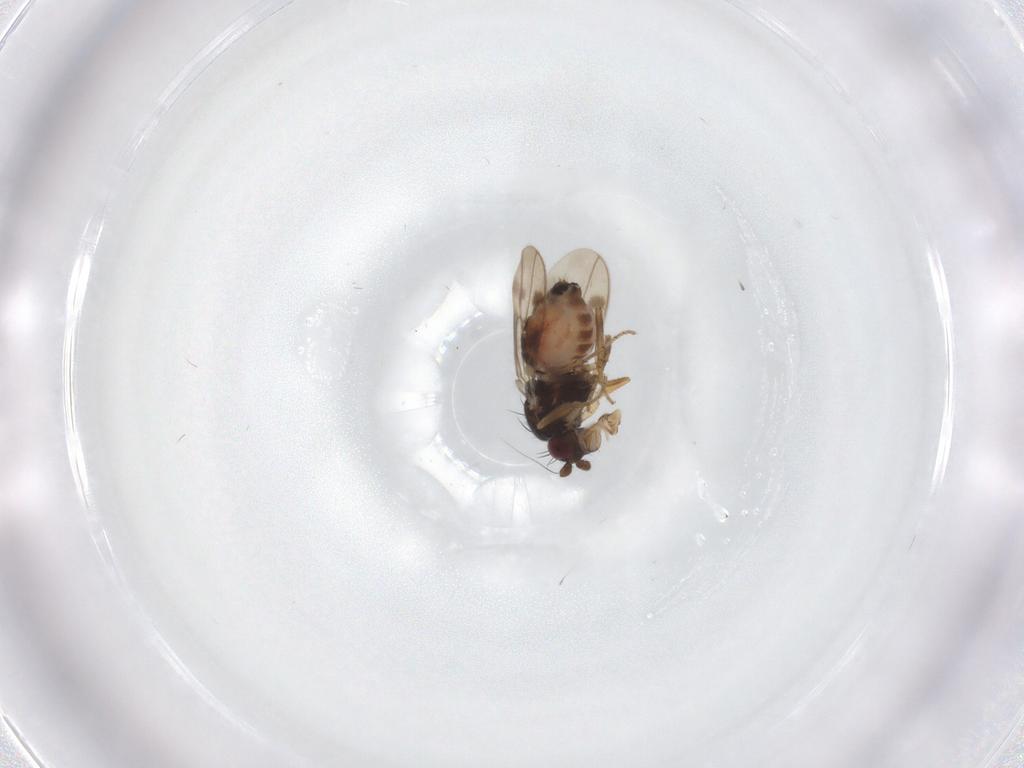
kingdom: Animalia
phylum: Arthropoda
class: Insecta
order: Diptera
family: Sphaeroceridae
